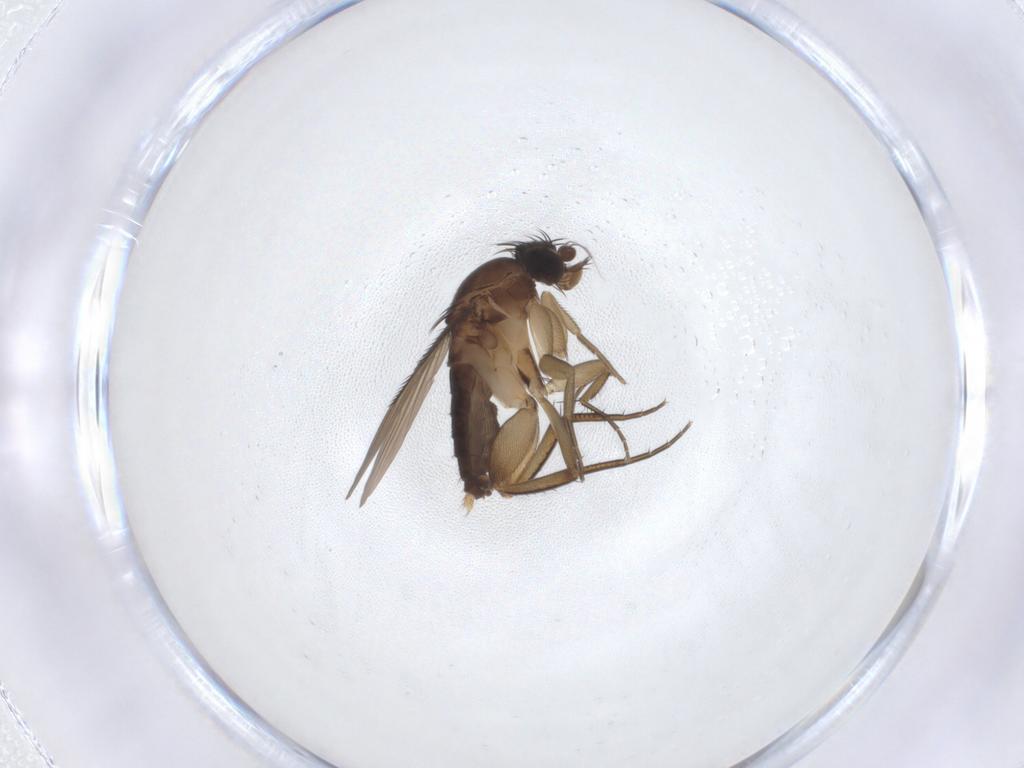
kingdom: Animalia
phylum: Arthropoda
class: Insecta
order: Diptera
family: Phoridae
